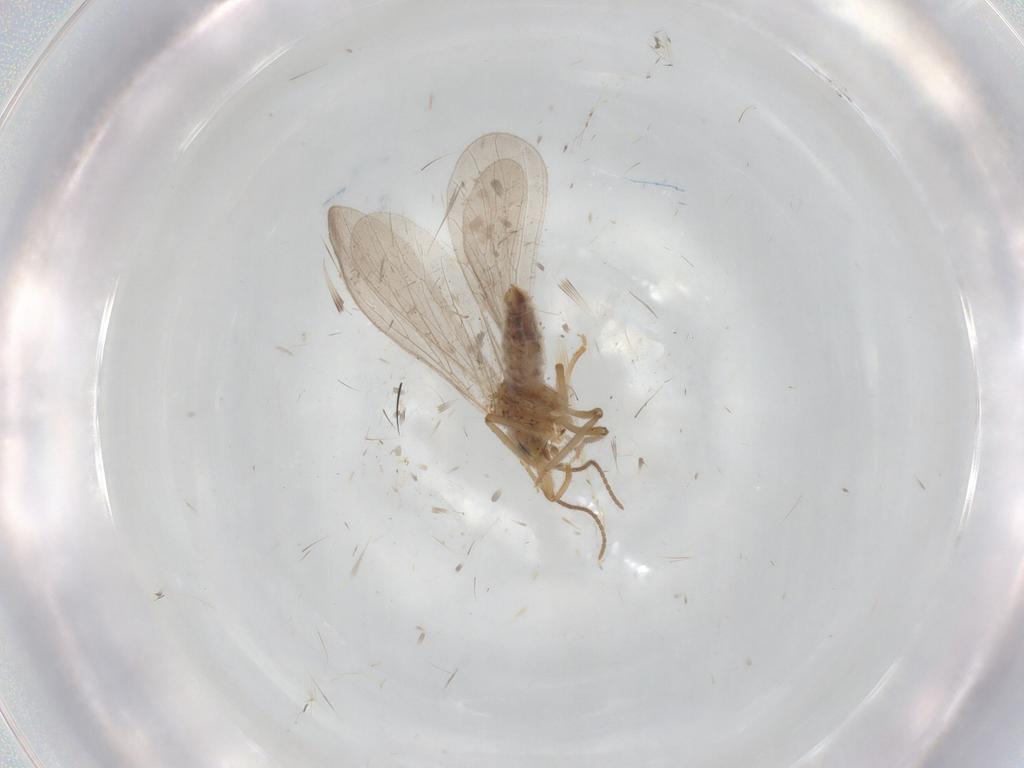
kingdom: Animalia
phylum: Arthropoda
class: Insecta
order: Neuroptera
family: Coniopterygidae
